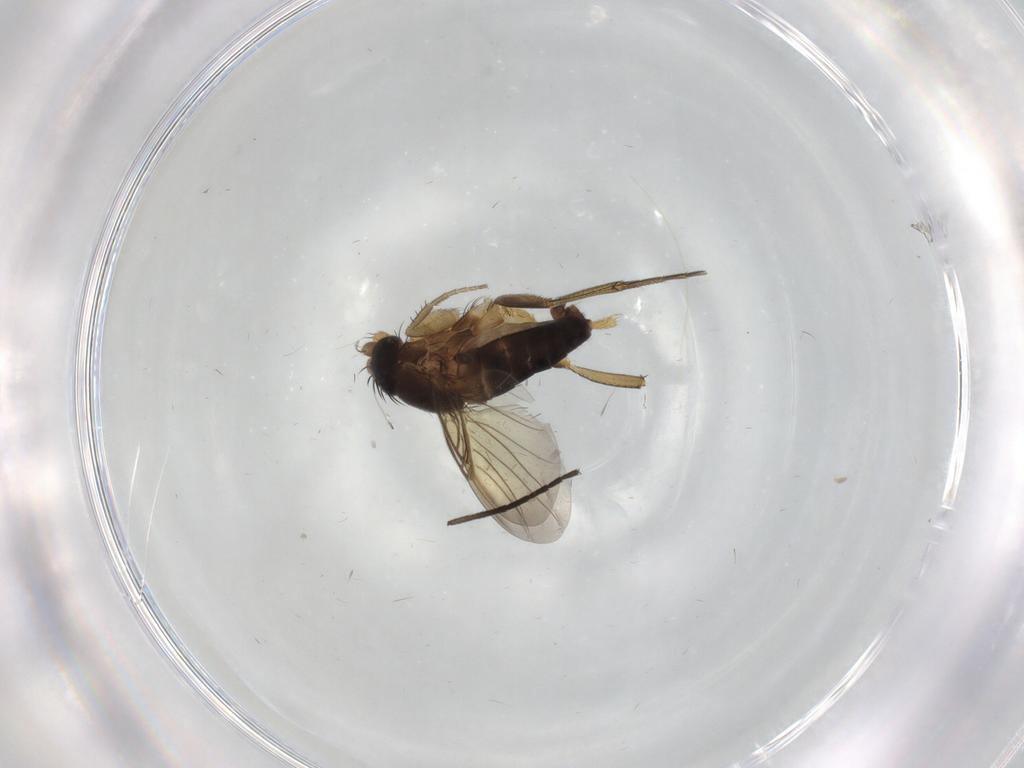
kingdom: Animalia
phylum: Arthropoda
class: Insecta
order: Diptera
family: Phoridae
